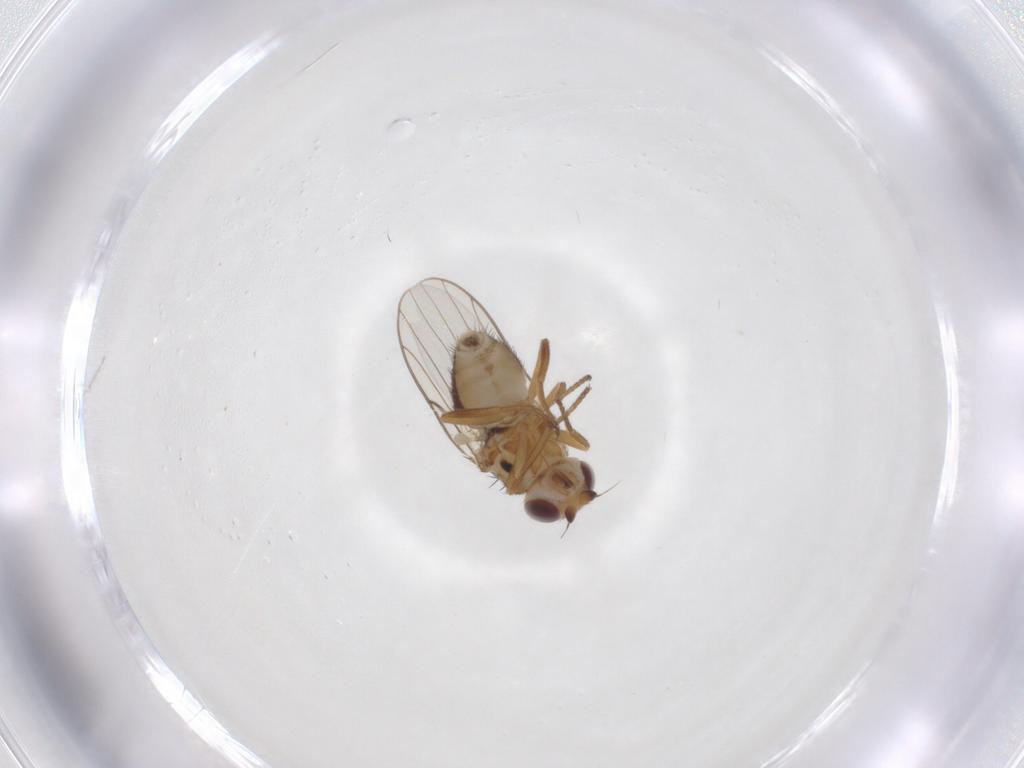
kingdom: Animalia
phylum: Arthropoda
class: Insecta
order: Diptera
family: Chloropidae
